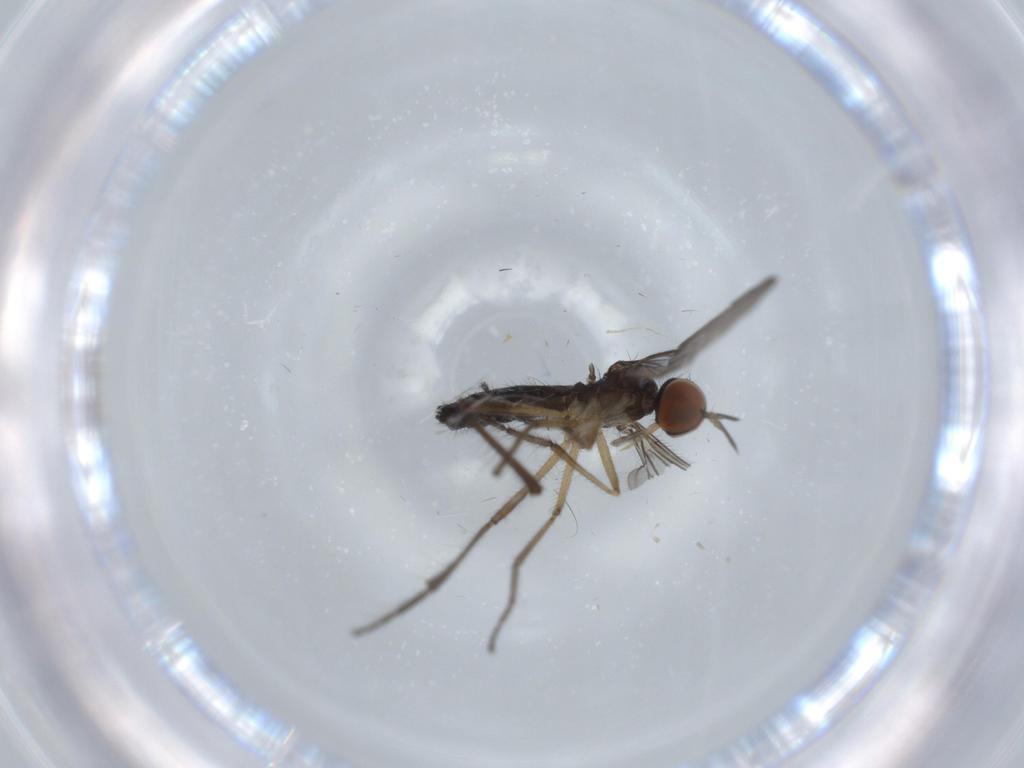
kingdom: Animalia
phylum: Arthropoda
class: Insecta
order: Diptera
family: Empididae
